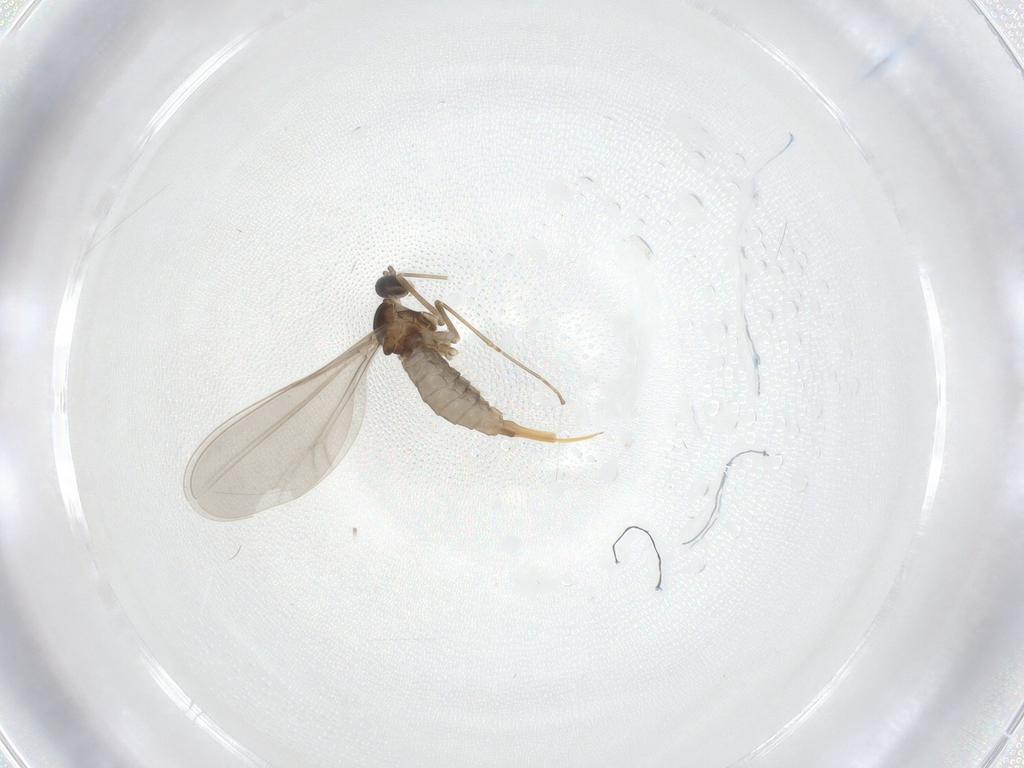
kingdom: Animalia
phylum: Arthropoda
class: Insecta
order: Diptera
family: Cecidomyiidae
